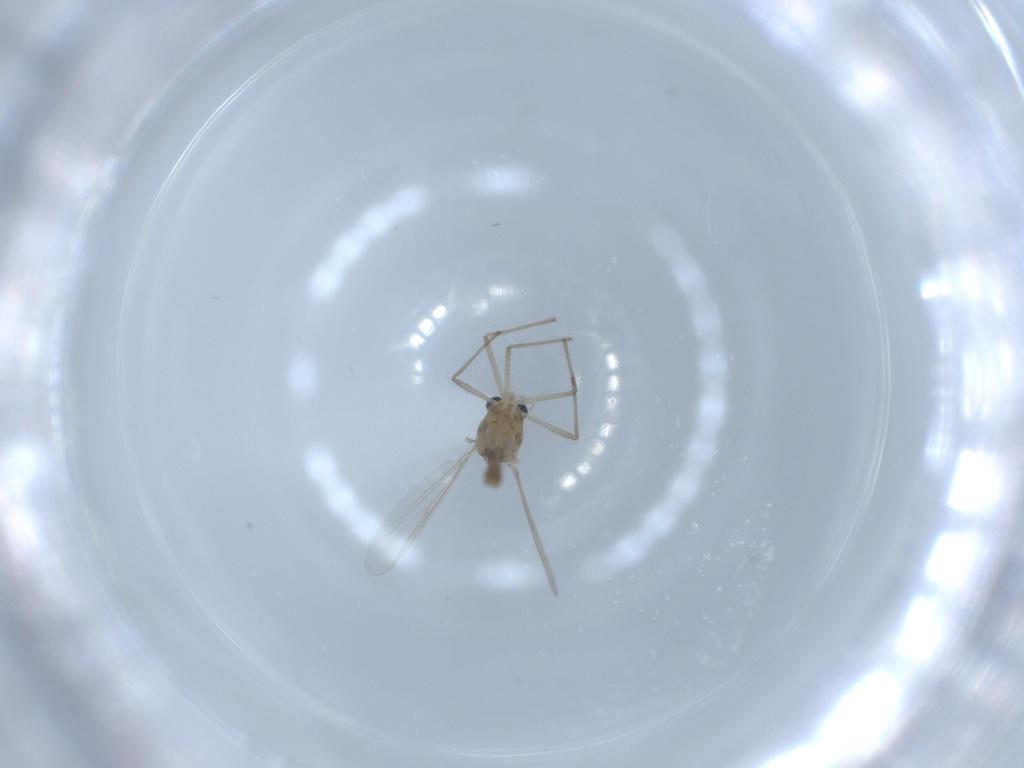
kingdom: Animalia
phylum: Arthropoda
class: Insecta
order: Diptera
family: Chironomidae
